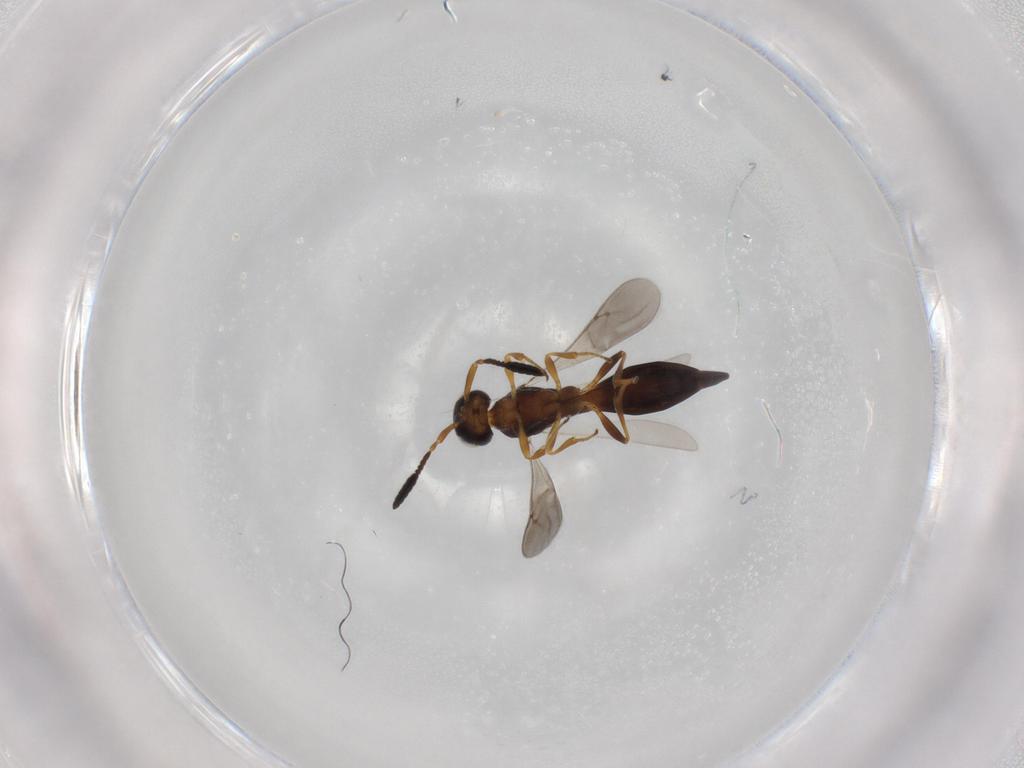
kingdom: Animalia
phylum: Arthropoda
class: Insecta
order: Hymenoptera
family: Scelionidae
